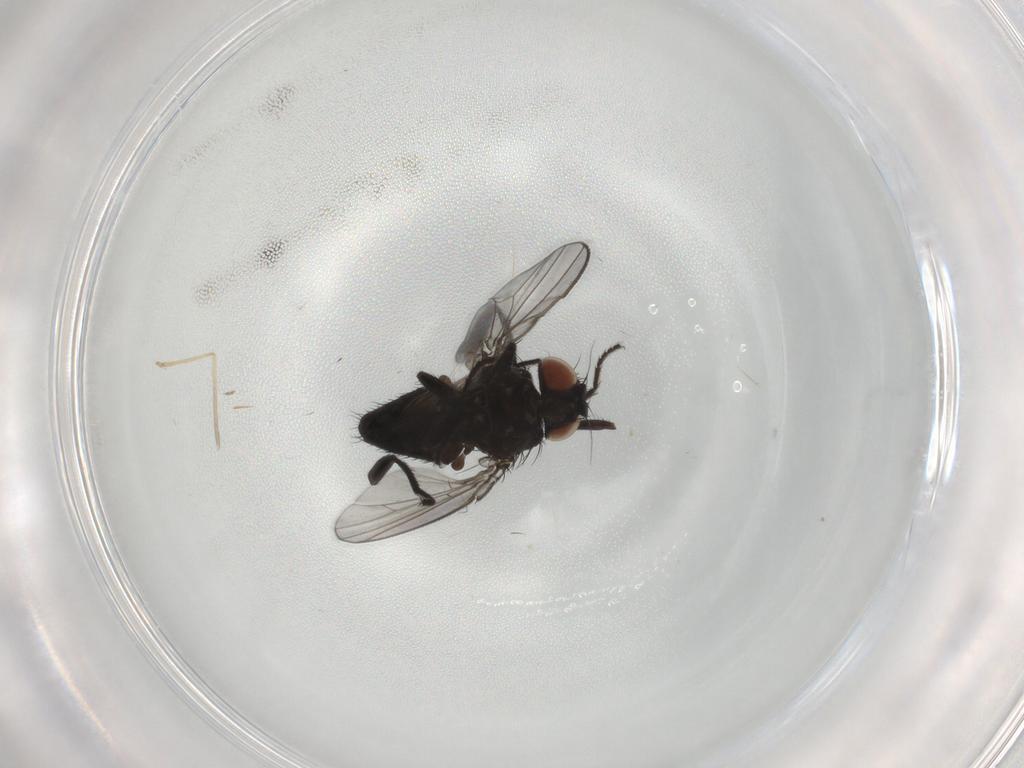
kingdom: Animalia
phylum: Arthropoda
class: Insecta
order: Diptera
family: Milichiidae
